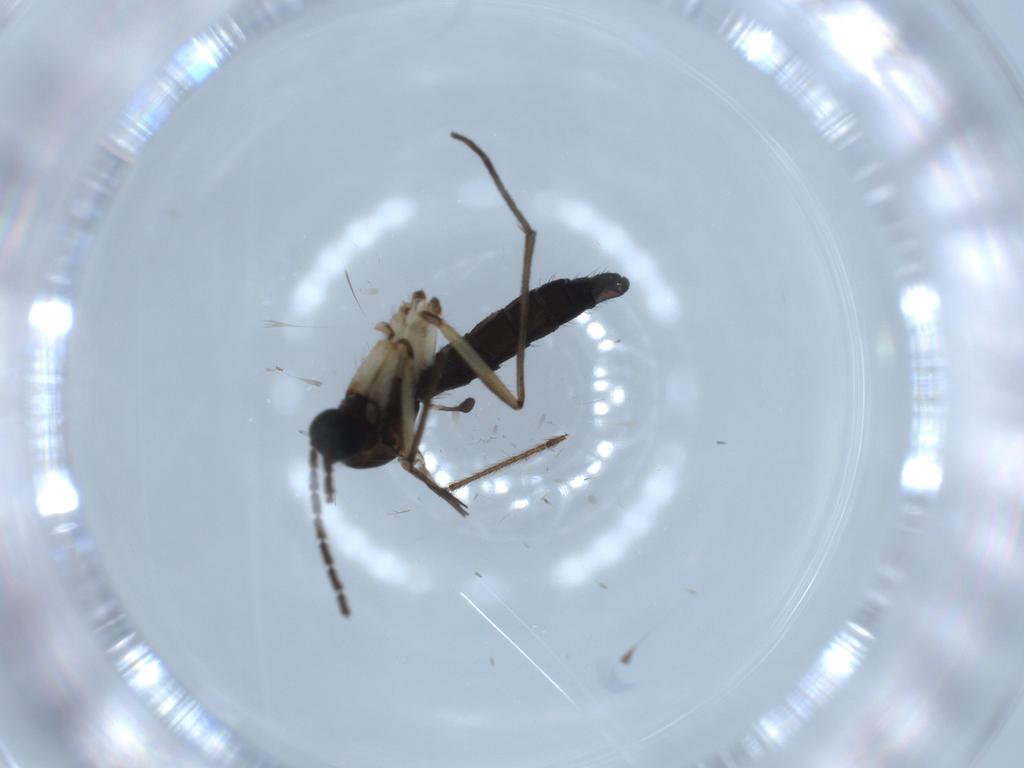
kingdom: Animalia
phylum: Arthropoda
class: Insecta
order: Diptera
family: Sciaridae
